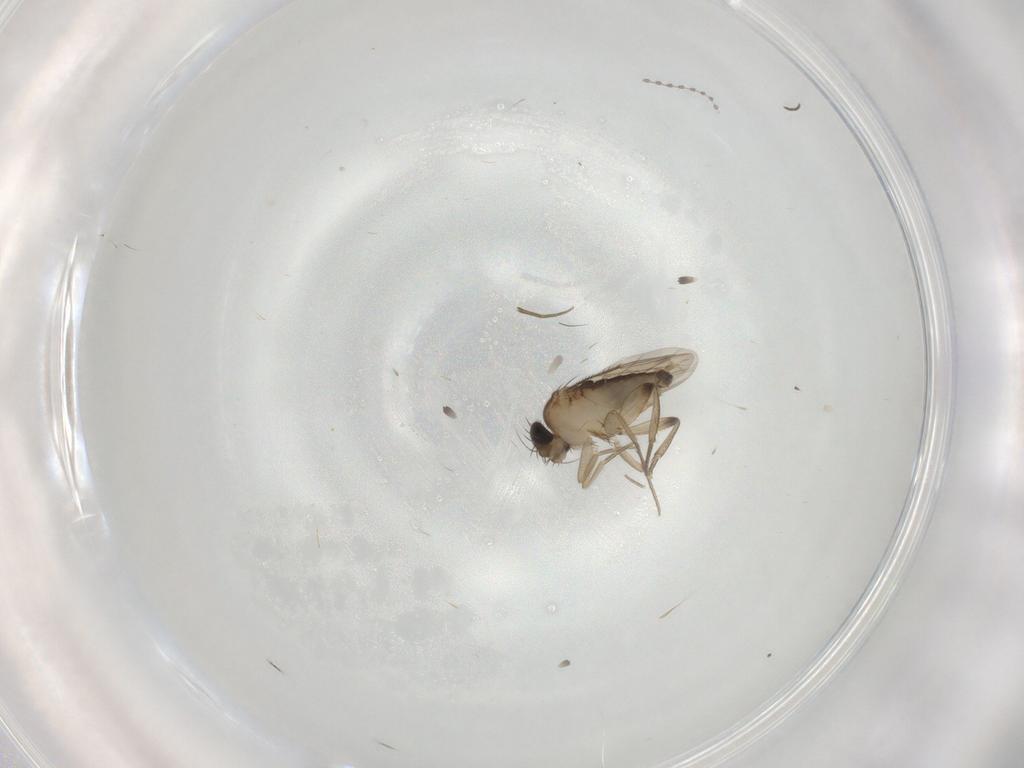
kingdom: Animalia
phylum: Arthropoda
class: Insecta
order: Diptera
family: Phoridae
